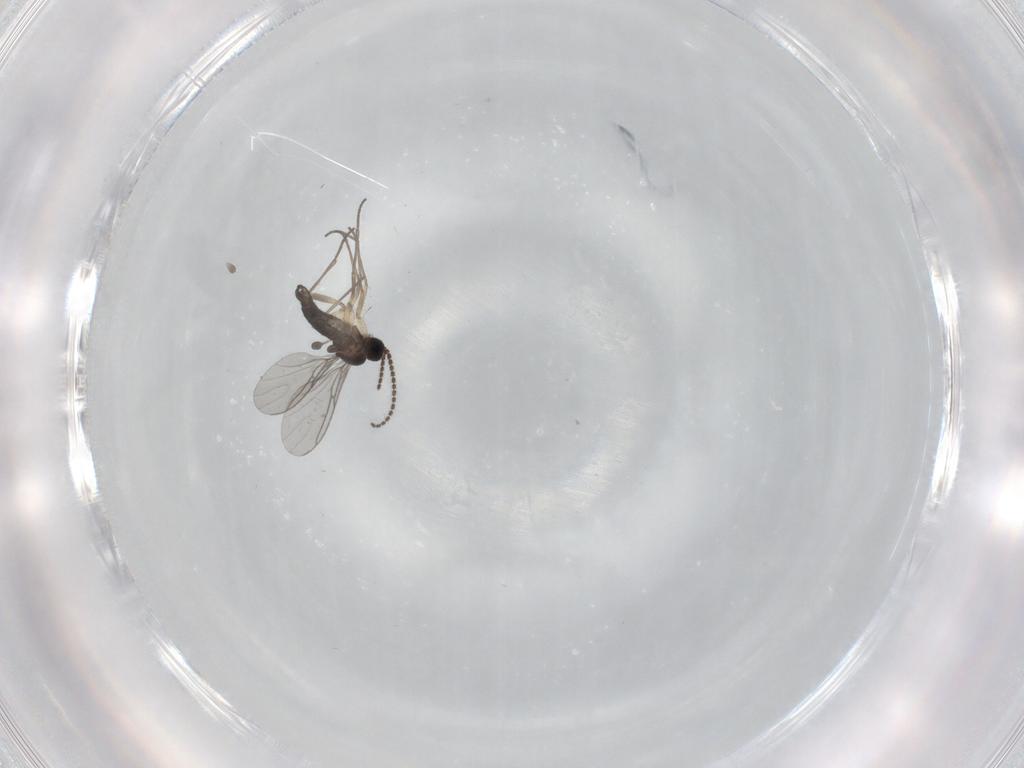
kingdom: Animalia
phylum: Arthropoda
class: Insecta
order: Diptera
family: Sciaridae
